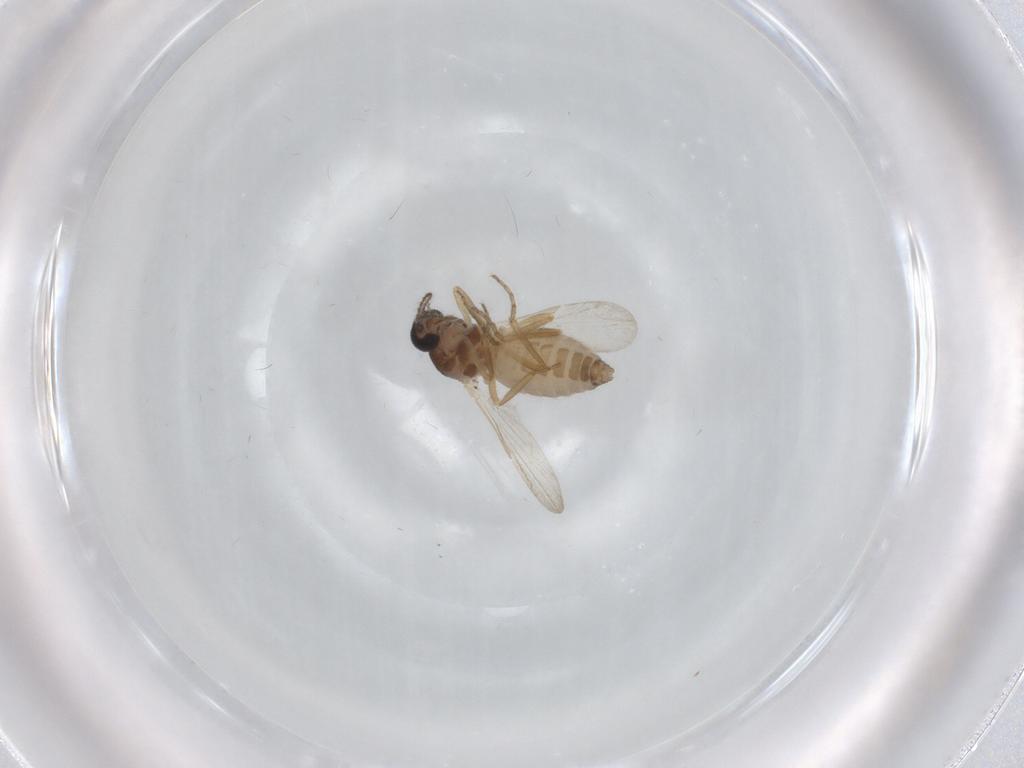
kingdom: Animalia
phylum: Arthropoda
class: Insecta
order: Diptera
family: Ceratopogonidae
